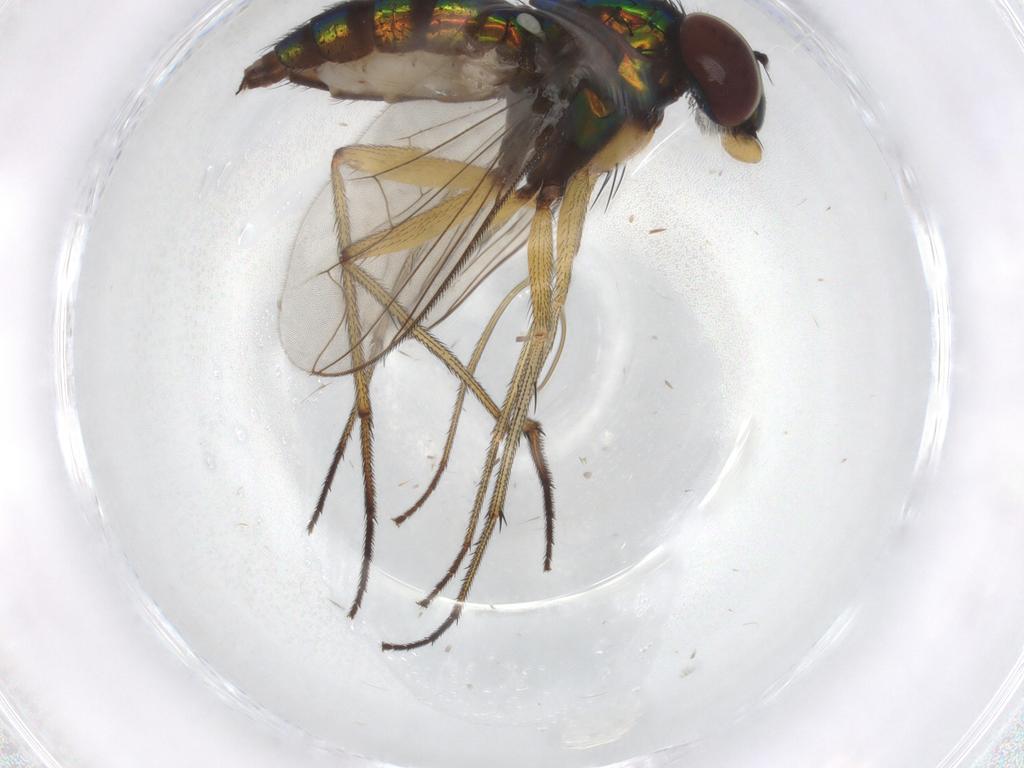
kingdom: Animalia
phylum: Arthropoda
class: Insecta
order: Diptera
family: Dolichopodidae
